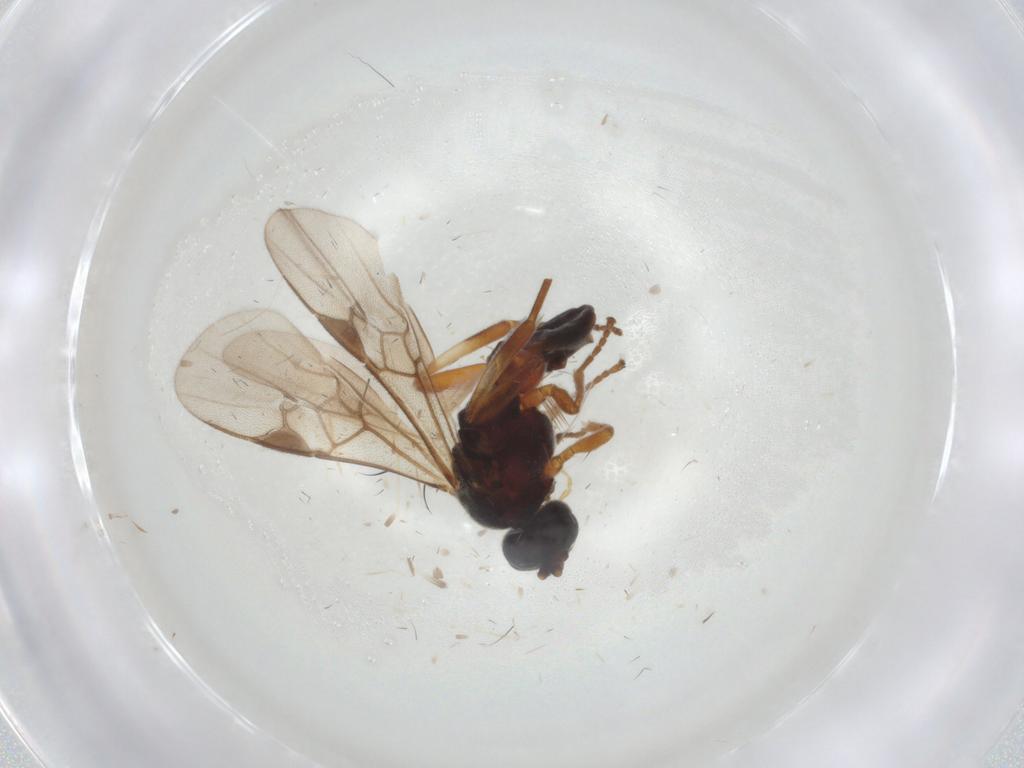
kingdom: Animalia
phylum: Arthropoda
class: Insecta
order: Hymenoptera
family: Braconidae
